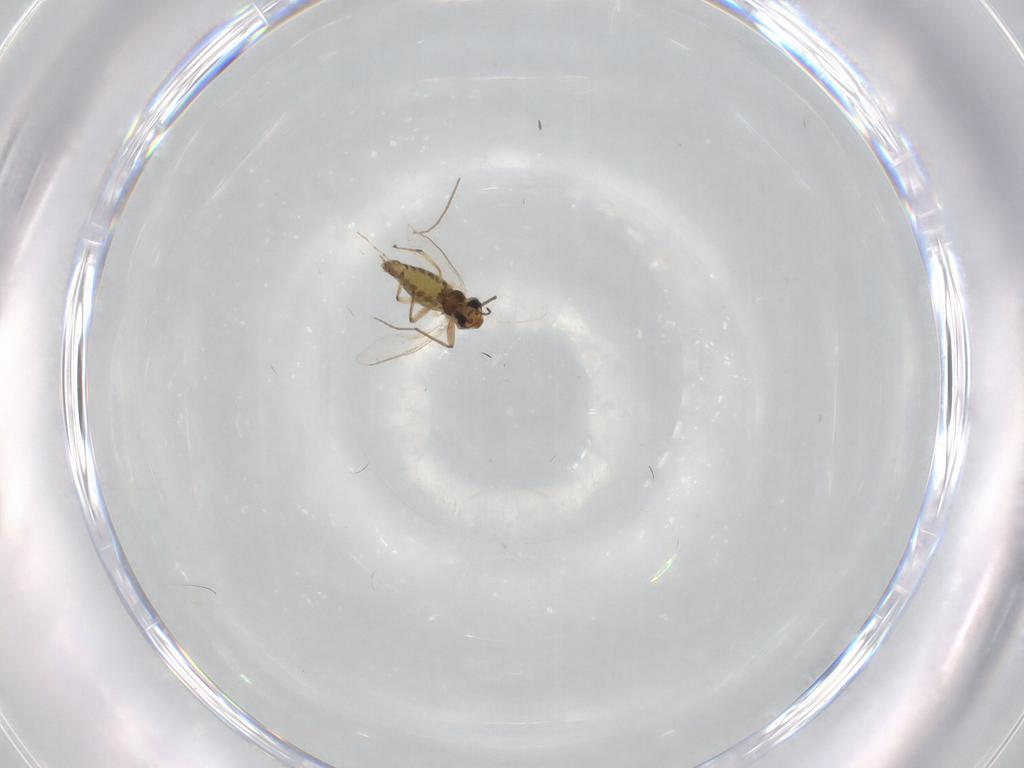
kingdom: Animalia
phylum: Arthropoda
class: Insecta
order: Diptera
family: Chironomidae
